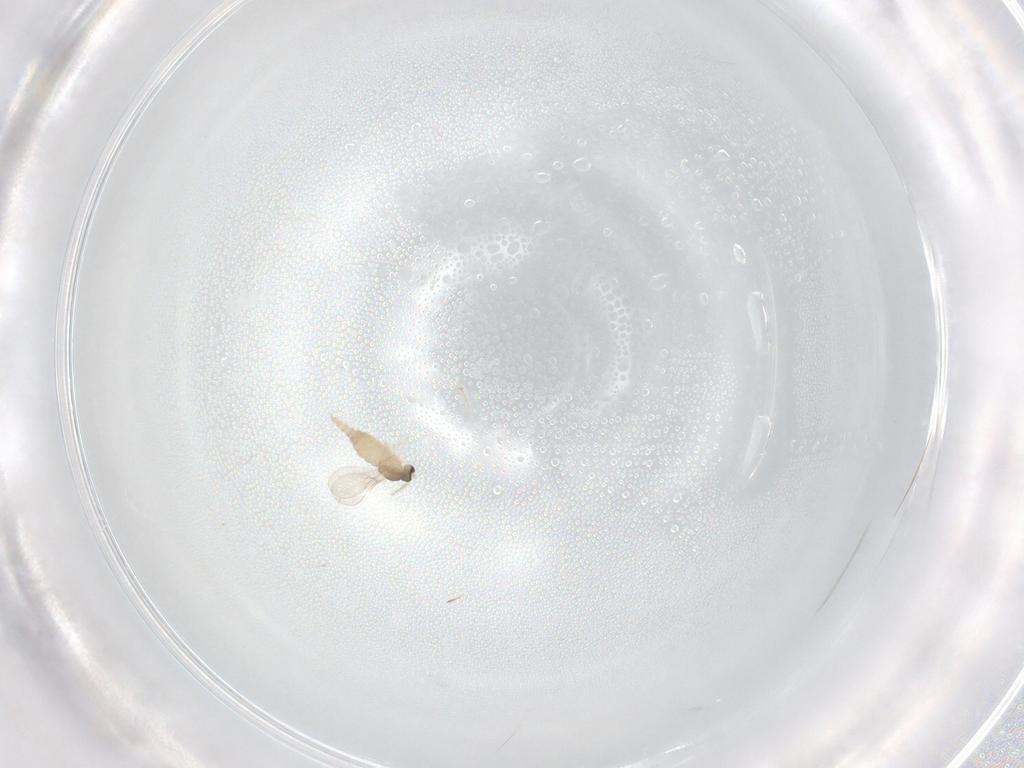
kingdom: Animalia
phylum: Arthropoda
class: Insecta
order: Diptera
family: Cecidomyiidae
